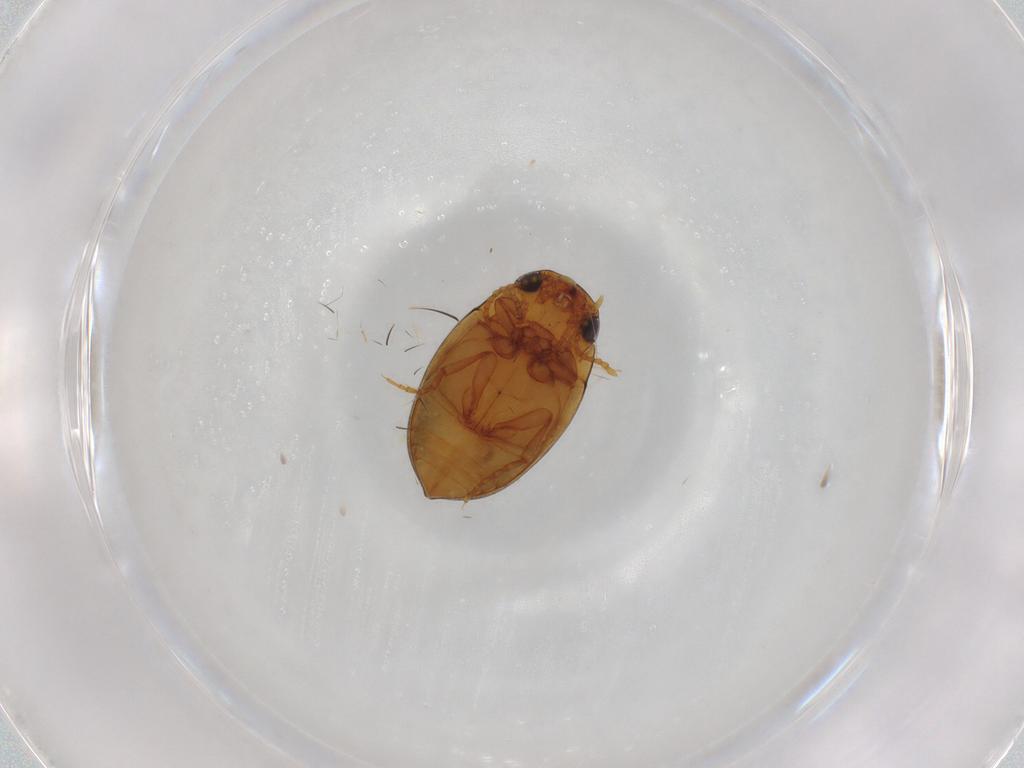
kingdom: Animalia
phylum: Arthropoda
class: Insecta
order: Coleoptera
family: Dytiscidae
